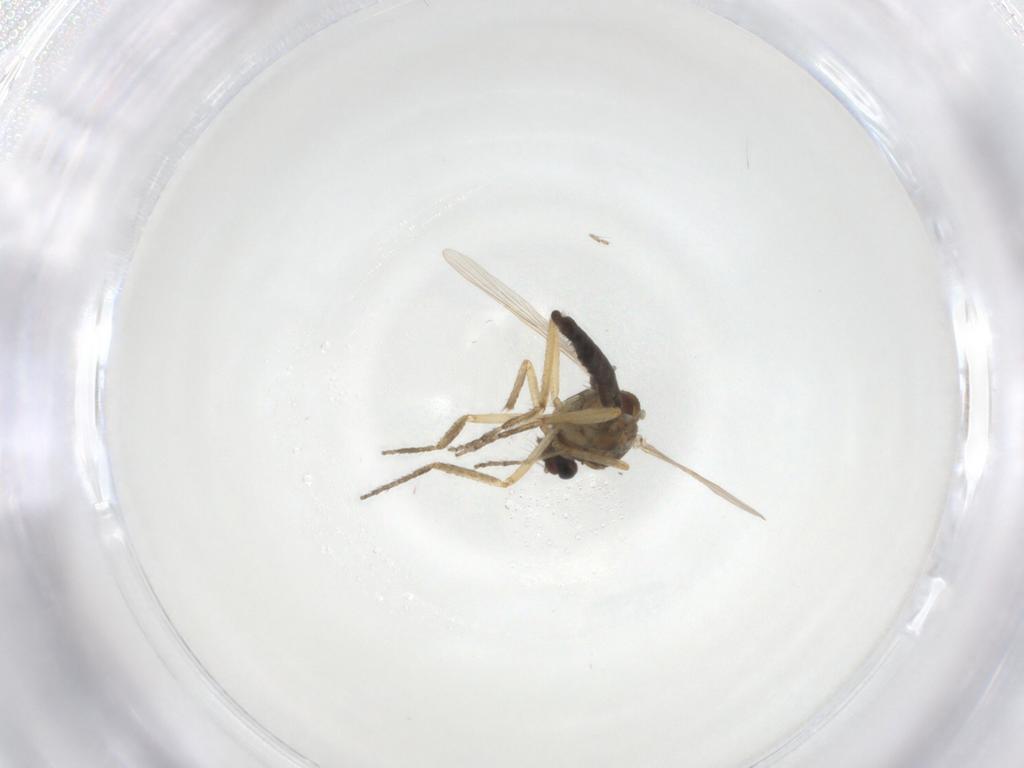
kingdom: Animalia
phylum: Arthropoda
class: Insecta
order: Diptera
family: Ceratopogonidae
